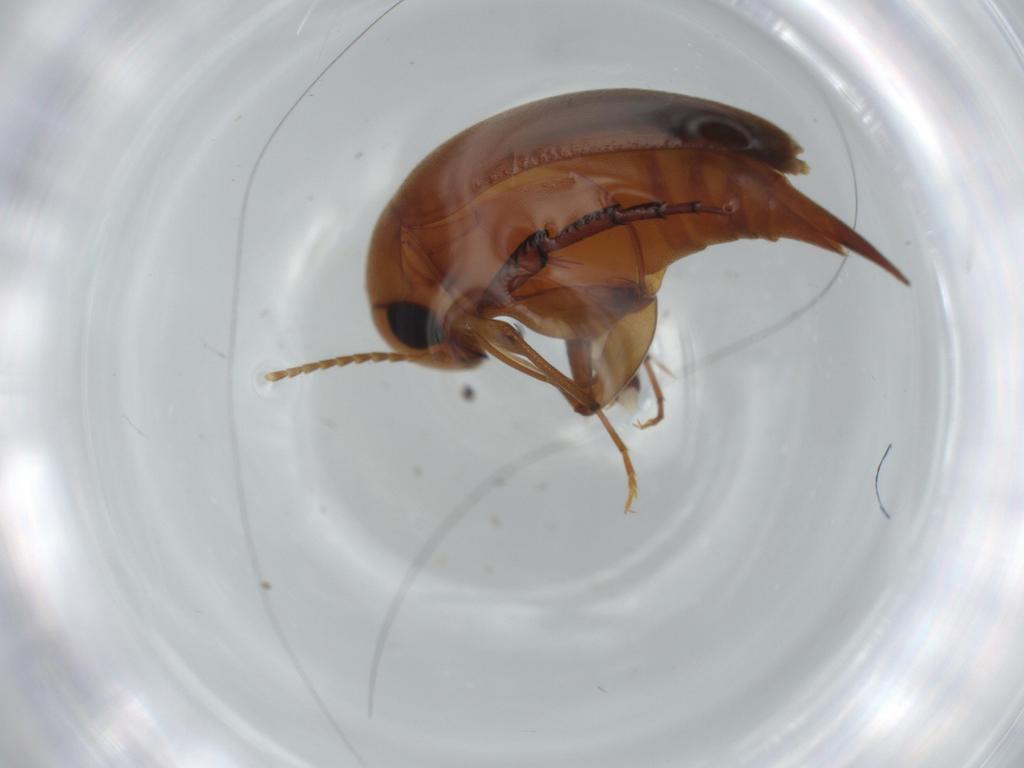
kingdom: Animalia
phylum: Arthropoda
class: Insecta
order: Coleoptera
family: Mordellidae
